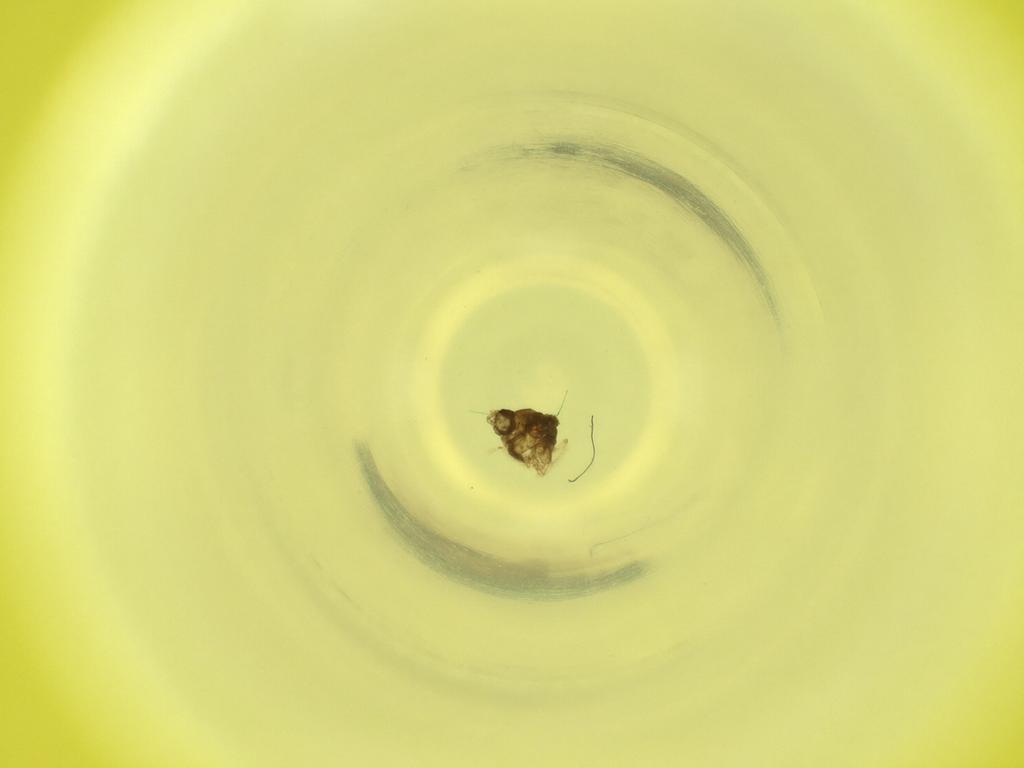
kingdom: Animalia
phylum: Arthropoda
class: Insecta
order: Diptera
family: Cecidomyiidae
